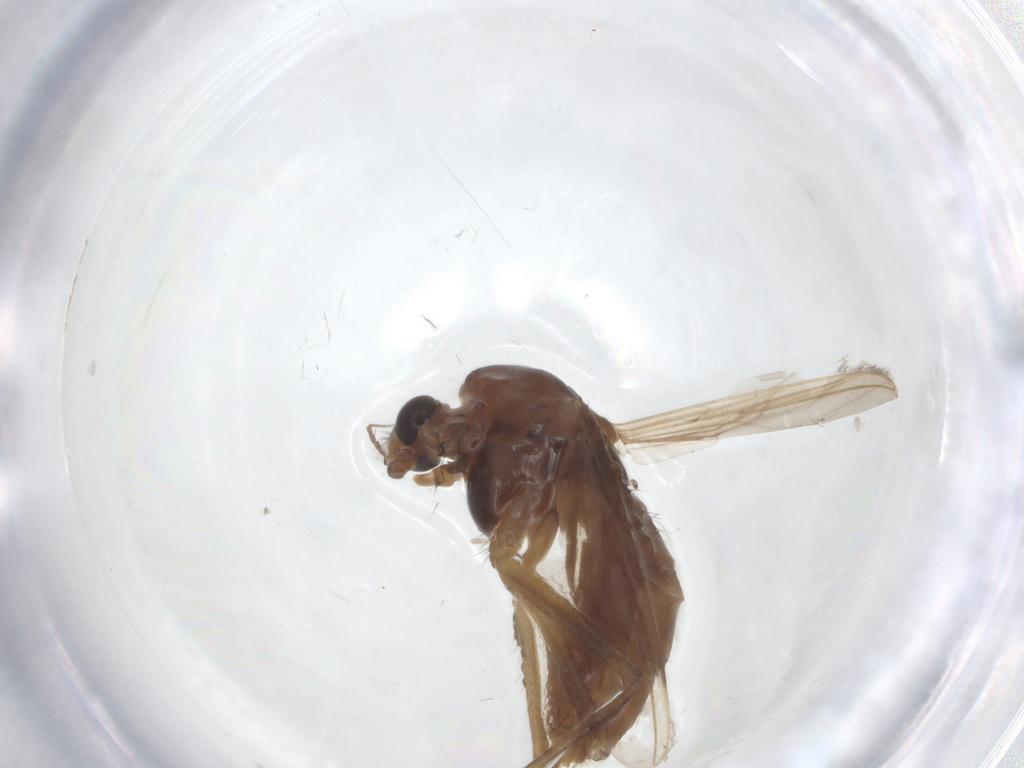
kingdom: Animalia
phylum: Arthropoda
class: Insecta
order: Diptera
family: Chironomidae
